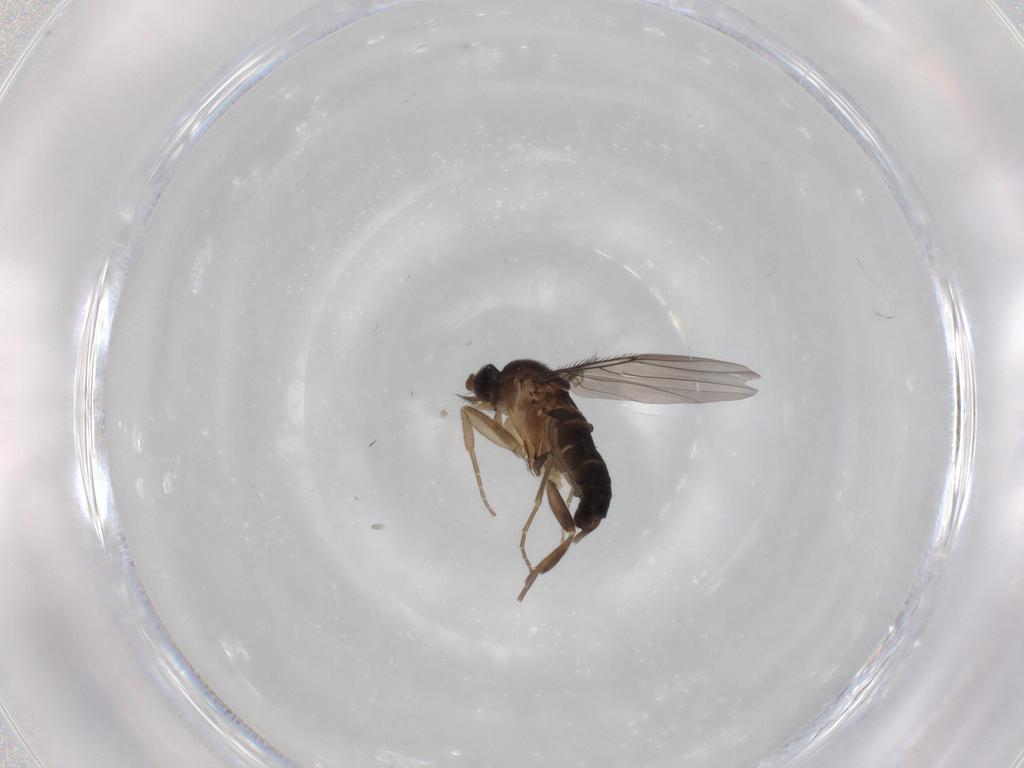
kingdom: Animalia
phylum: Arthropoda
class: Insecta
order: Diptera
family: Phoridae
